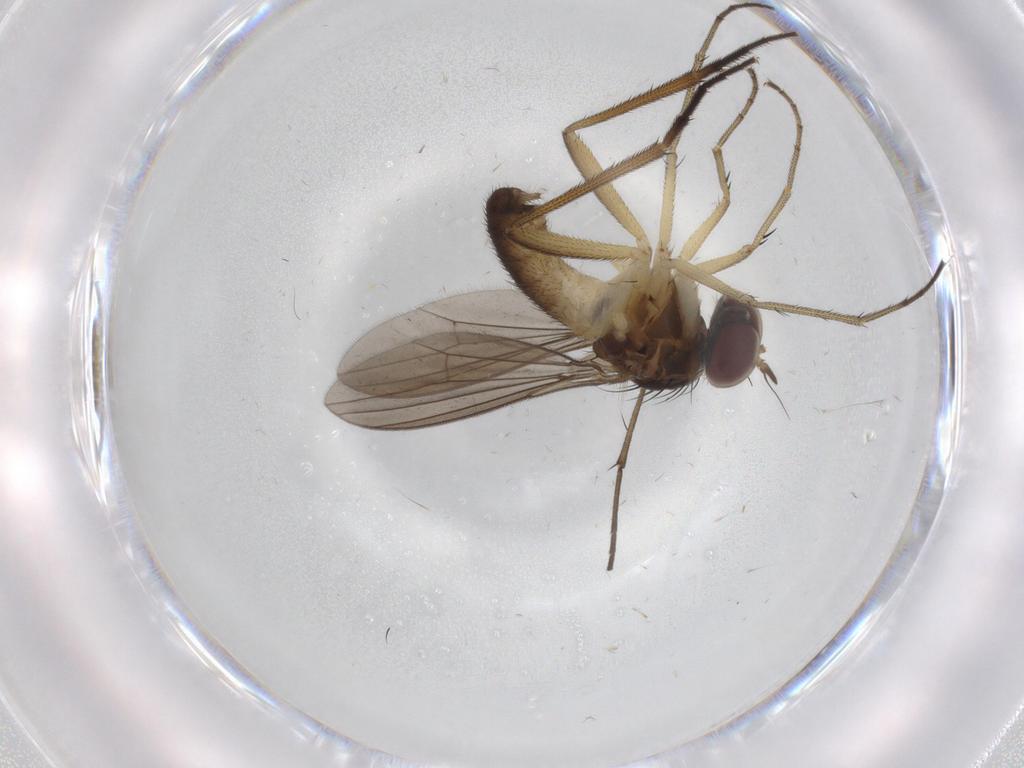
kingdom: Animalia
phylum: Arthropoda
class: Insecta
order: Diptera
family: Dolichopodidae
